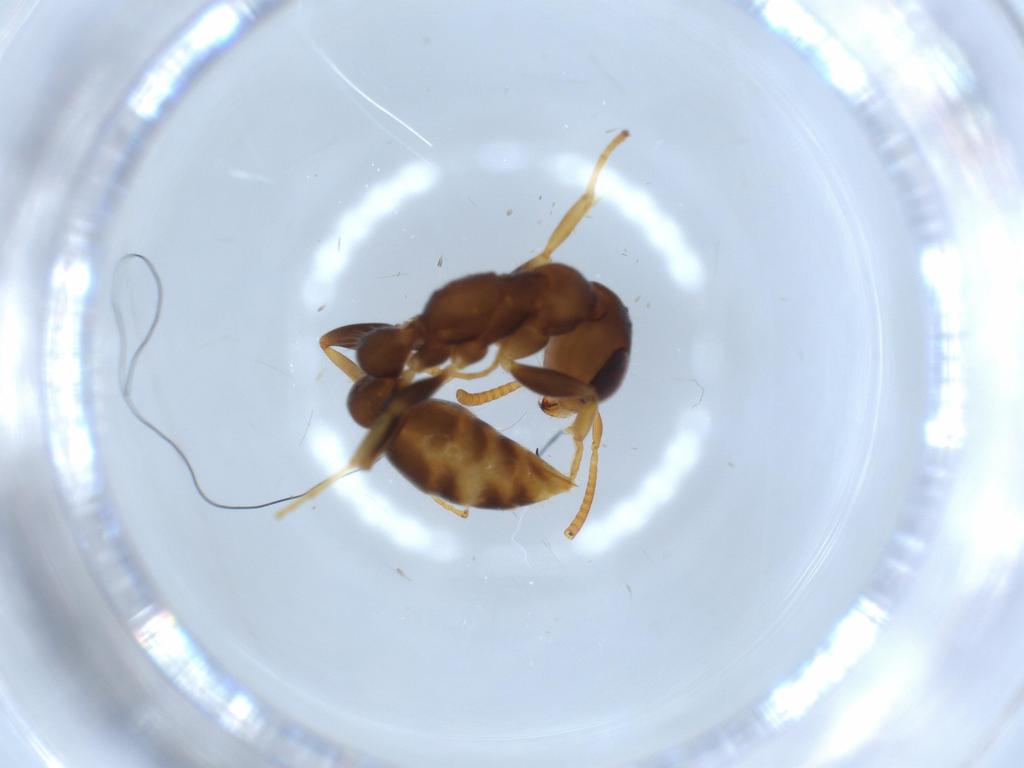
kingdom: Animalia
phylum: Arthropoda
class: Insecta
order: Hymenoptera
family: Formicidae
